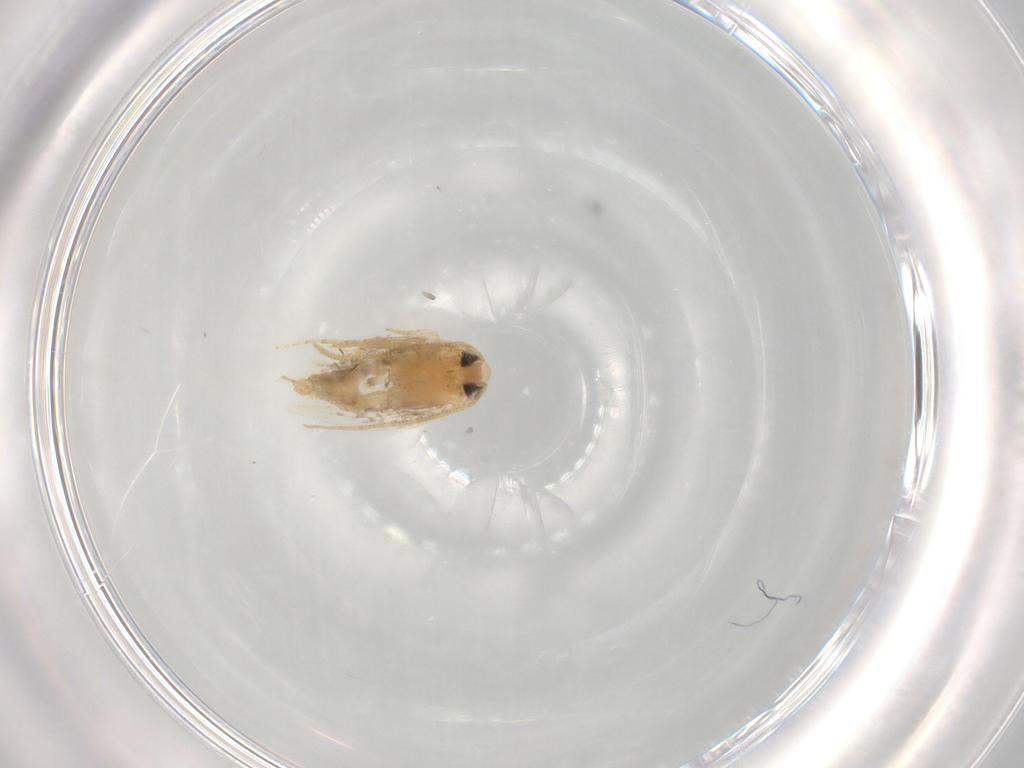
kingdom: Animalia
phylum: Arthropoda
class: Insecta
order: Lepidoptera
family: Opostegidae
